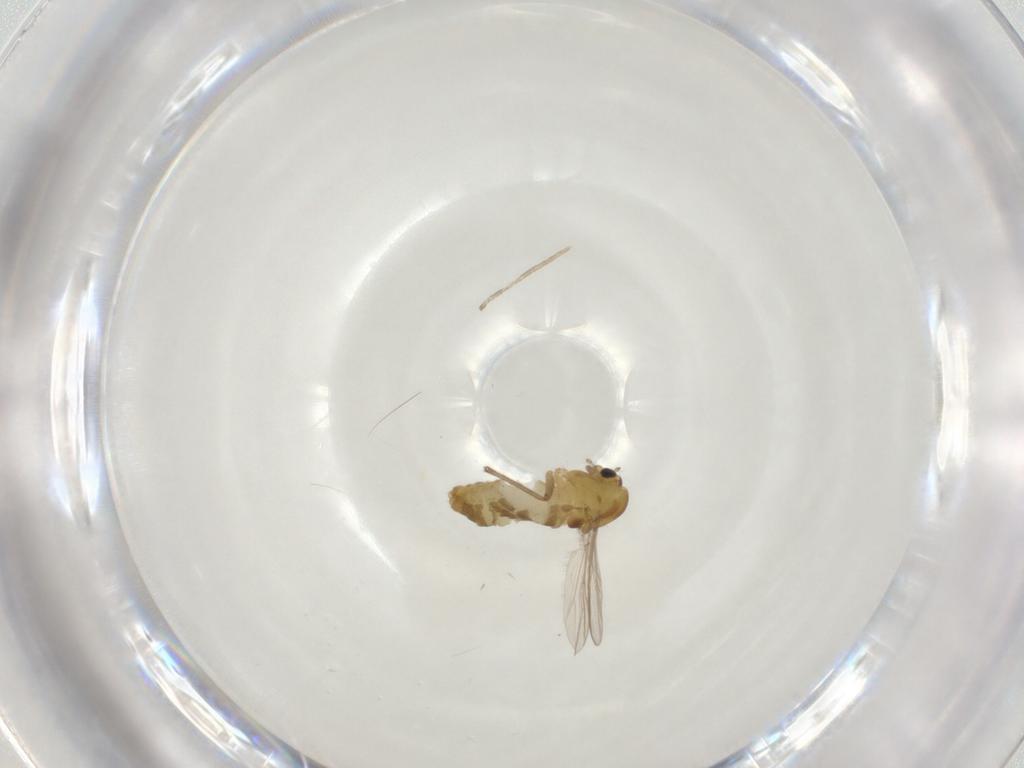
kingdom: Animalia
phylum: Arthropoda
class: Insecta
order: Diptera
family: Chironomidae
